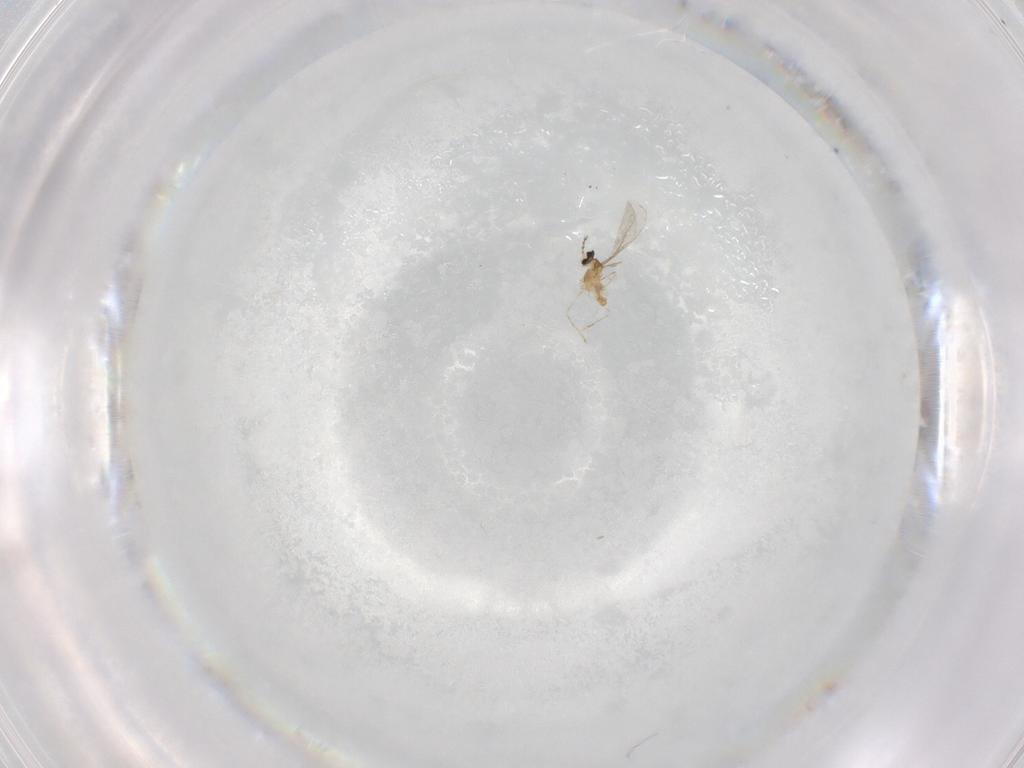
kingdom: Animalia
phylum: Arthropoda
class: Insecta
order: Diptera
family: Cecidomyiidae
